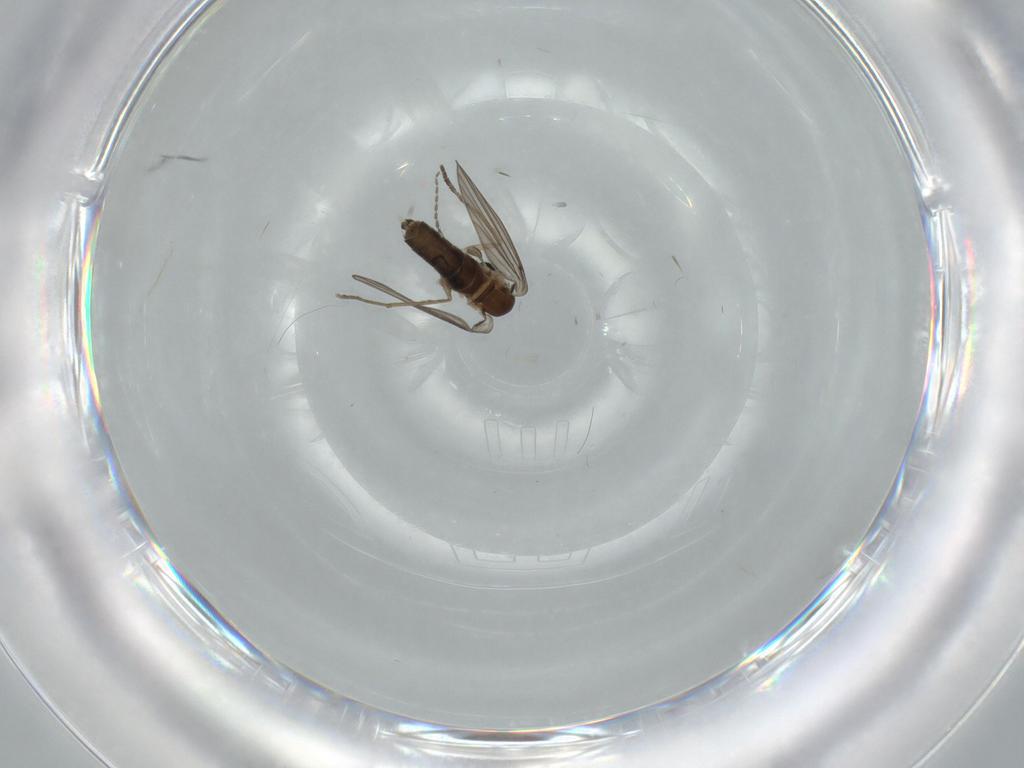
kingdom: Animalia
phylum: Arthropoda
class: Insecta
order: Diptera
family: Psychodidae
